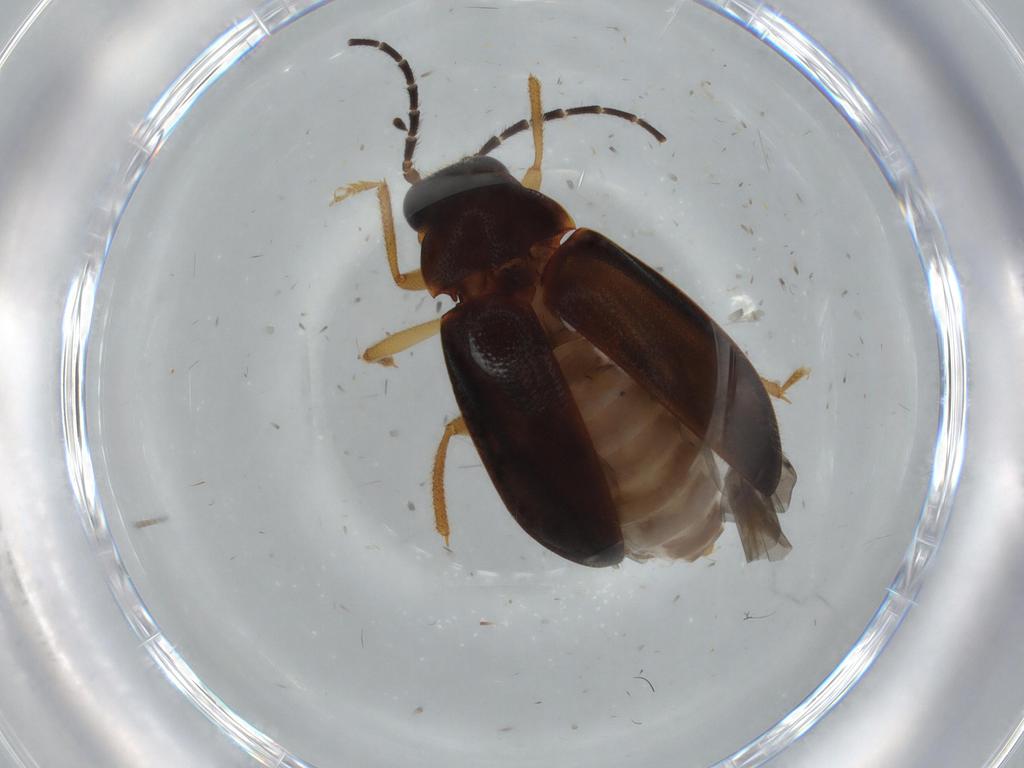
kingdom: Animalia
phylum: Arthropoda
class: Insecta
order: Coleoptera
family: Ptilodactylidae
